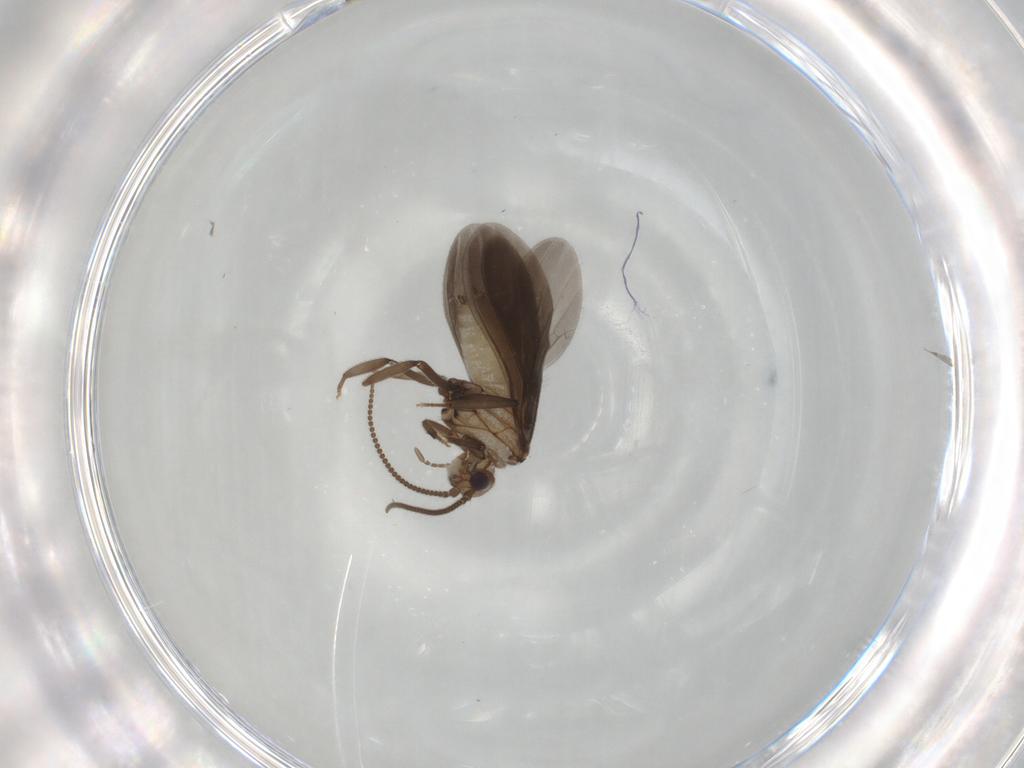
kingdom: Animalia
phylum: Arthropoda
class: Insecta
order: Neuroptera
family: Coniopterygidae
